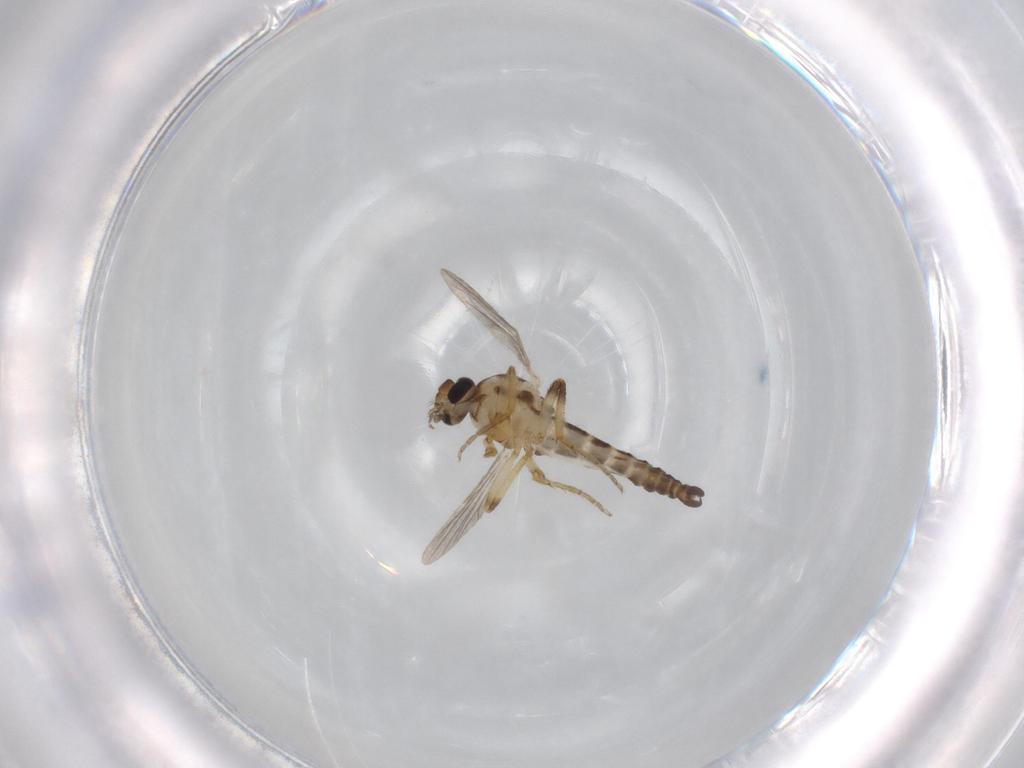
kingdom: Animalia
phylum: Arthropoda
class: Insecta
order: Diptera
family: Ceratopogonidae
